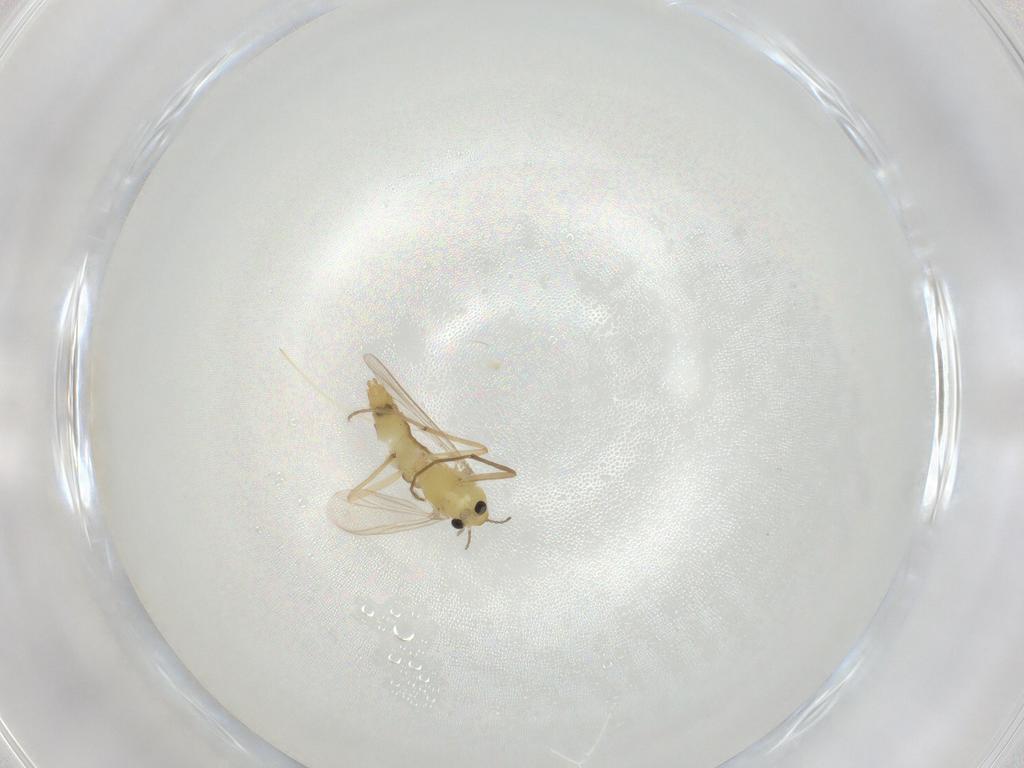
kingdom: Animalia
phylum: Arthropoda
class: Insecta
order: Diptera
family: Chironomidae
